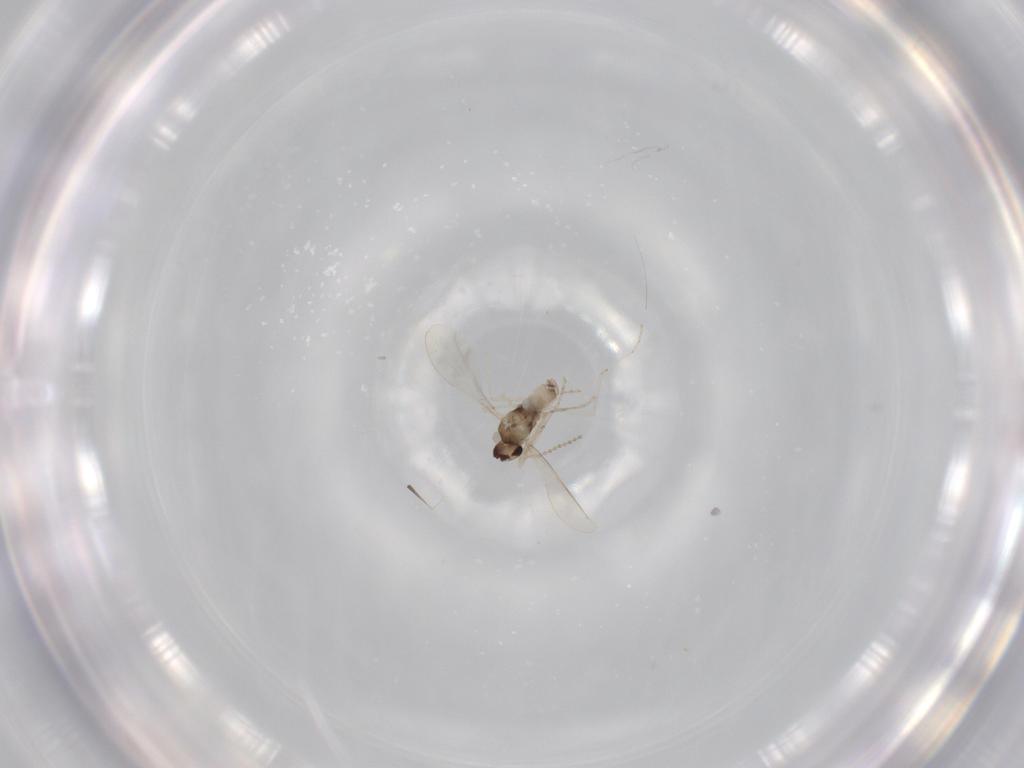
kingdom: Animalia
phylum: Arthropoda
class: Insecta
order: Diptera
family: Cecidomyiidae
